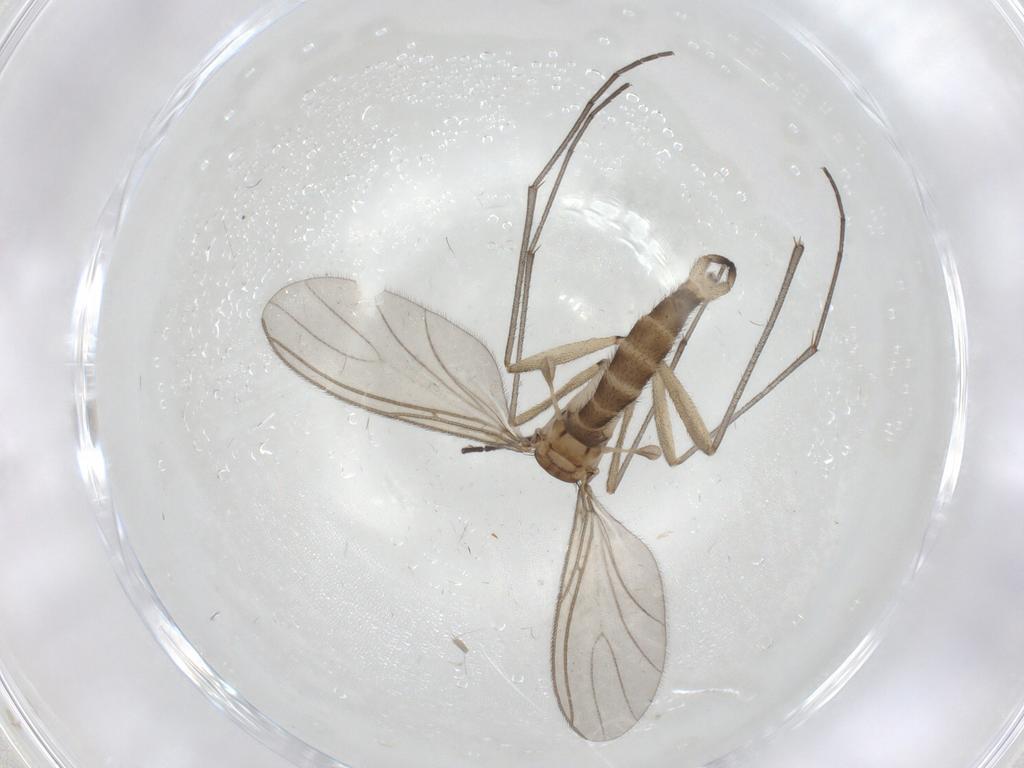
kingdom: Animalia
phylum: Arthropoda
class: Insecta
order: Diptera
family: Sciaridae
